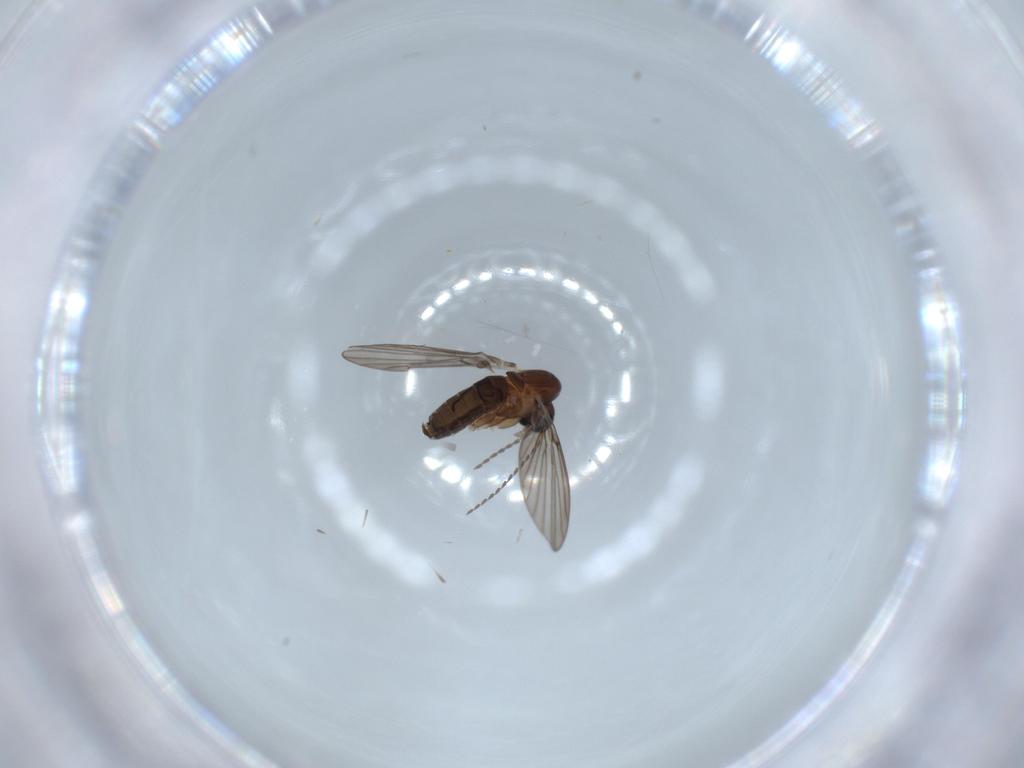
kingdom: Animalia
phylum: Arthropoda
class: Insecta
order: Diptera
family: Psychodidae
